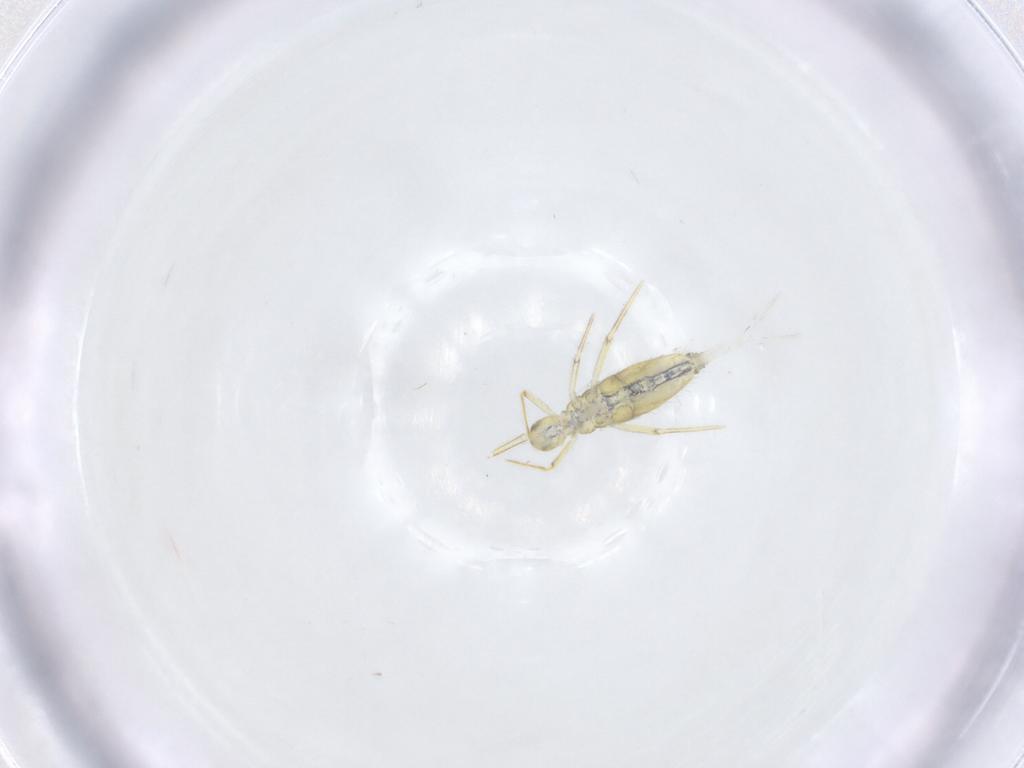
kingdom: Animalia
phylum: Arthropoda
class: Collembola
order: Entomobryomorpha
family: Paronellidae
